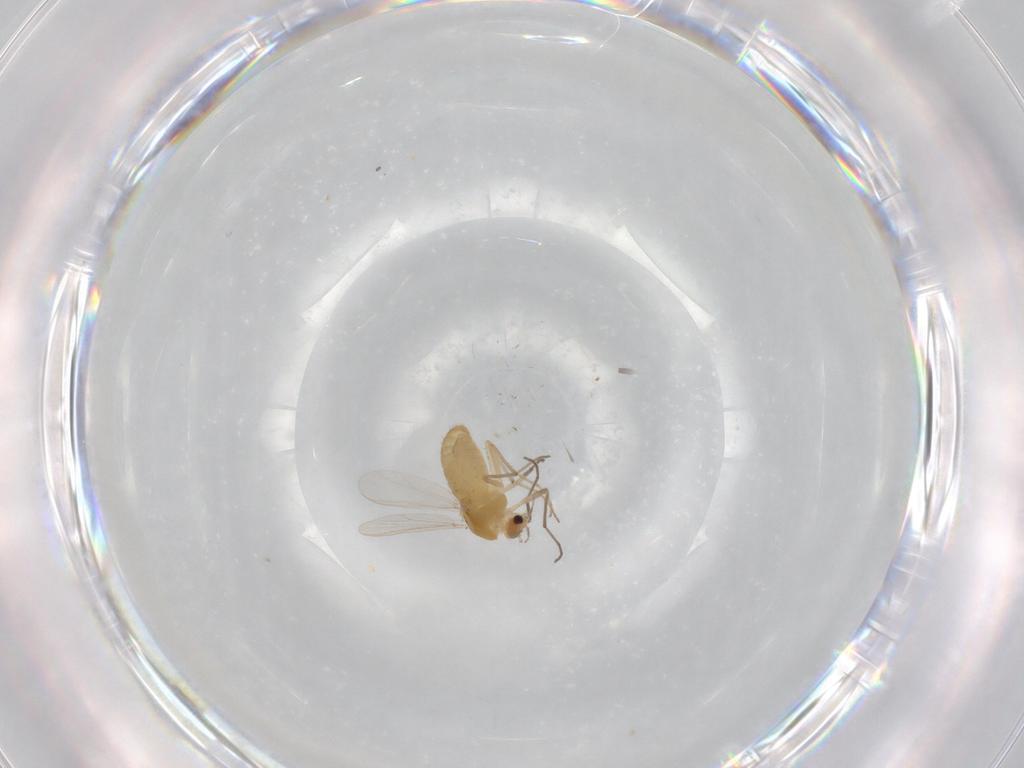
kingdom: Animalia
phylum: Arthropoda
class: Insecta
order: Diptera
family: Chironomidae
